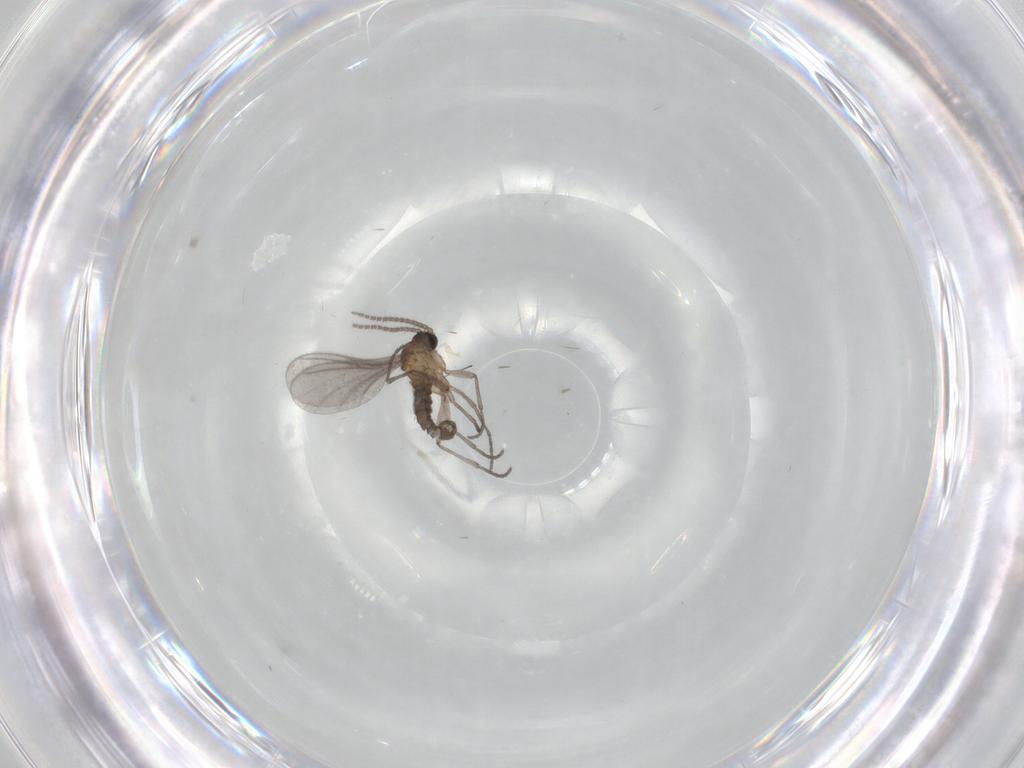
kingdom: Animalia
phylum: Arthropoda
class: Insecta
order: Diptera
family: Sciaridae
